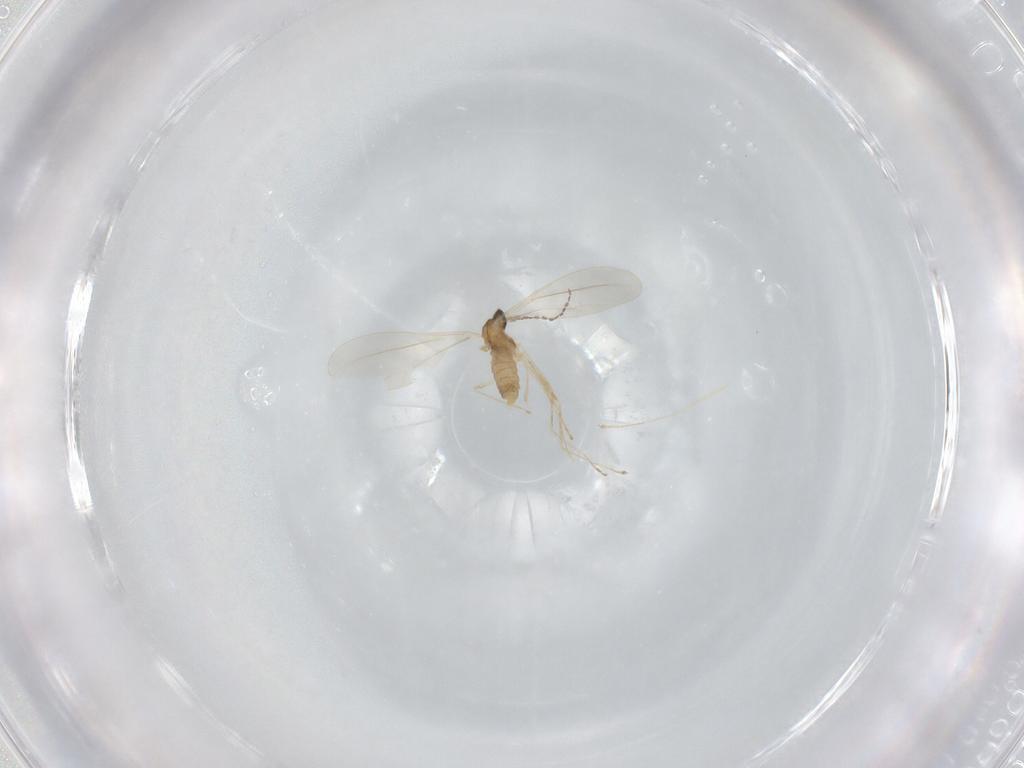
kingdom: Animalia
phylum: Arthropoda
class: Insecta
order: Diptera
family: Cecidomyiidae
